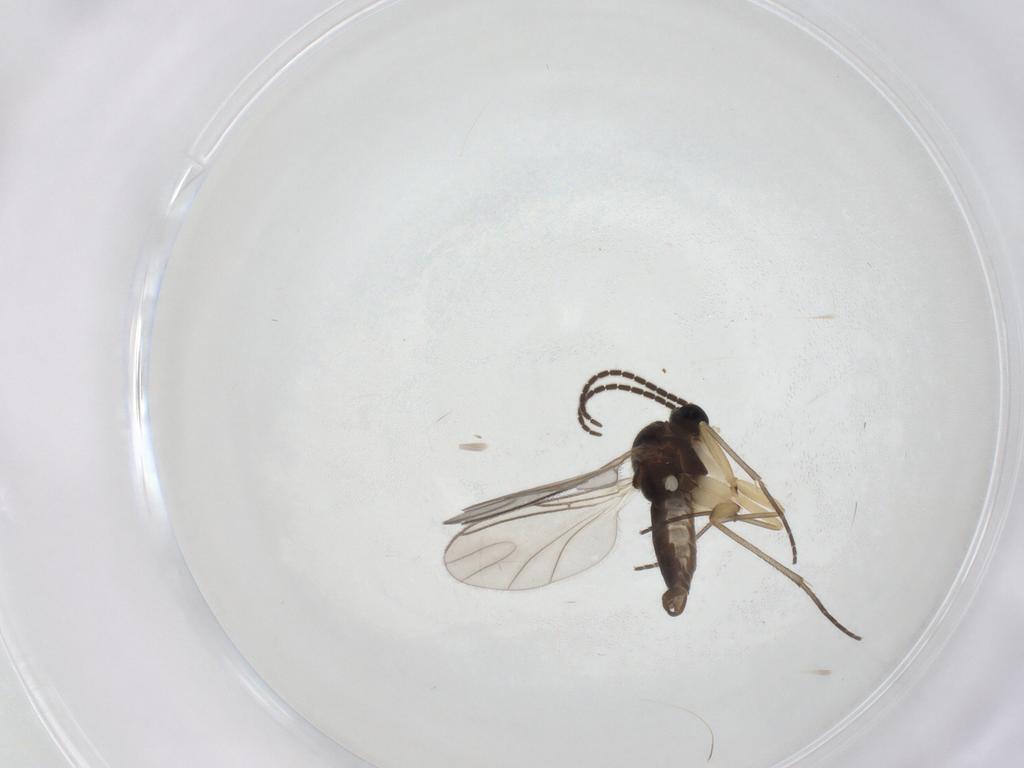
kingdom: Animalia
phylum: Arthropoda
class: Insecta
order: Diptera
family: Sciaridae
